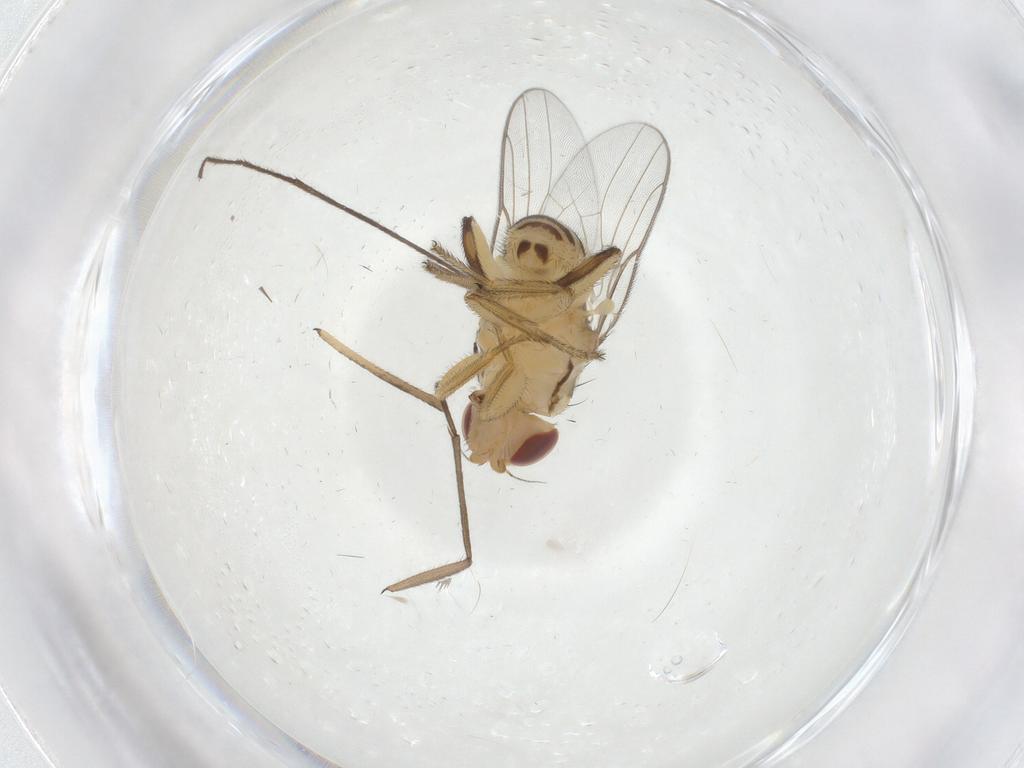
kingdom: Animalia
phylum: Arthropoda
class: Insecta
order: Diptera
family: Chloropidae
